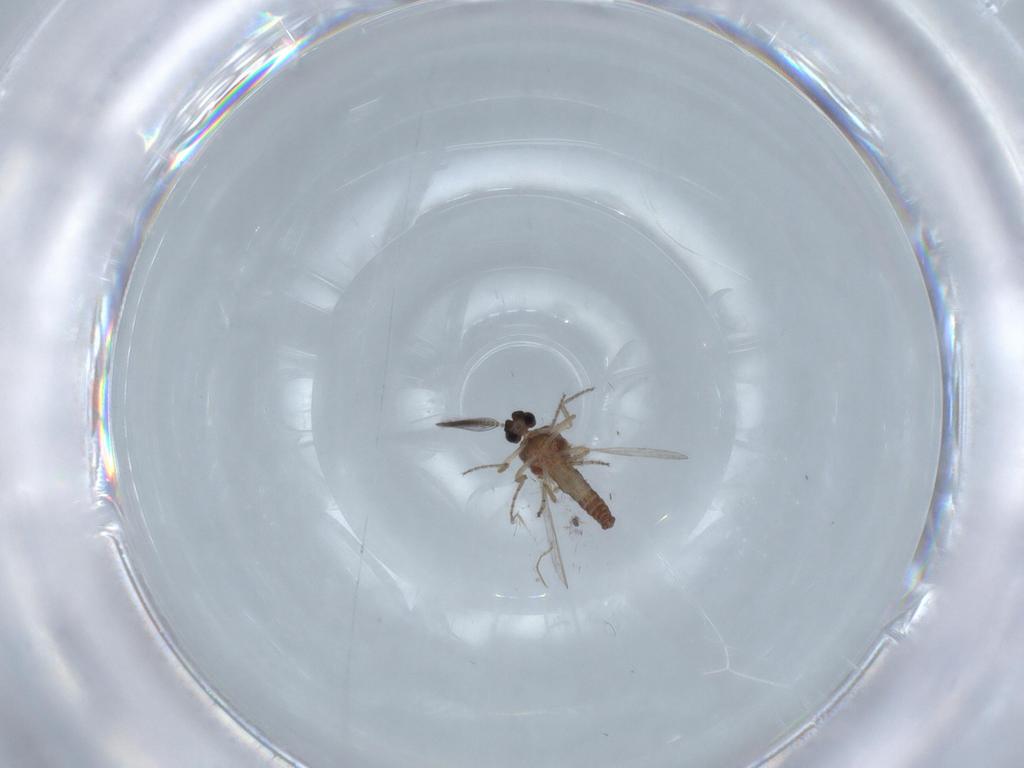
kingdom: Animalia
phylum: Arthropoda
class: Insecta
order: Diptera
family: Ceratopogonidae
